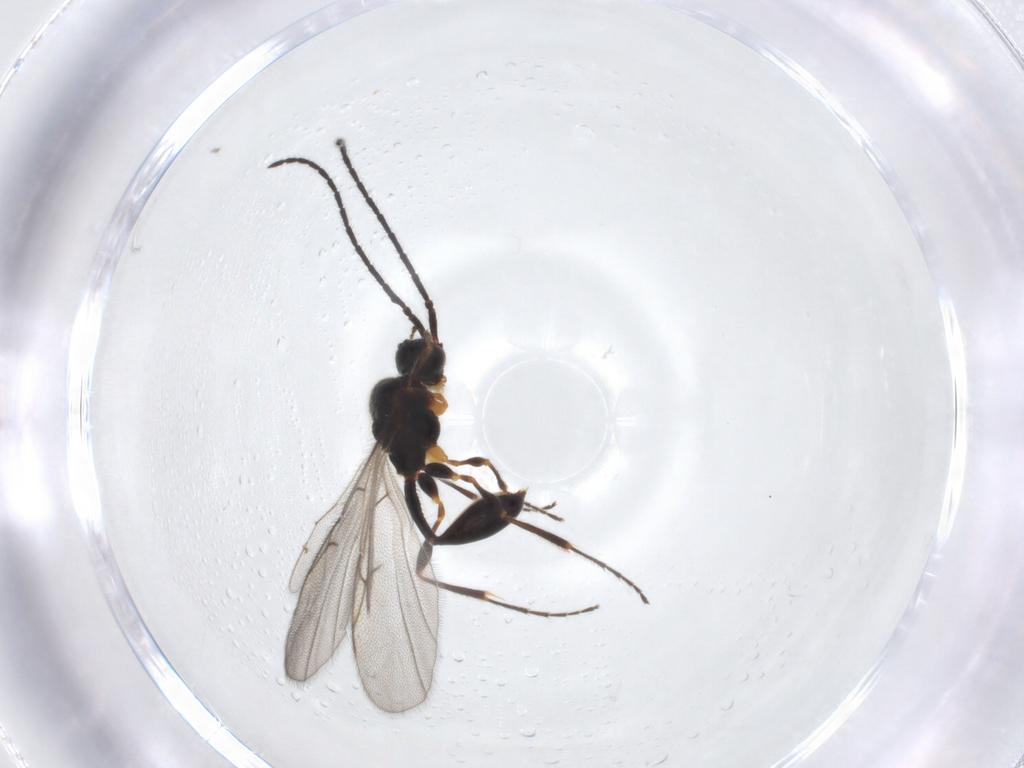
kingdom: Animalia
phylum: Arthropoda
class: Insecta
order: Hymenoptera
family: Diapriidae
